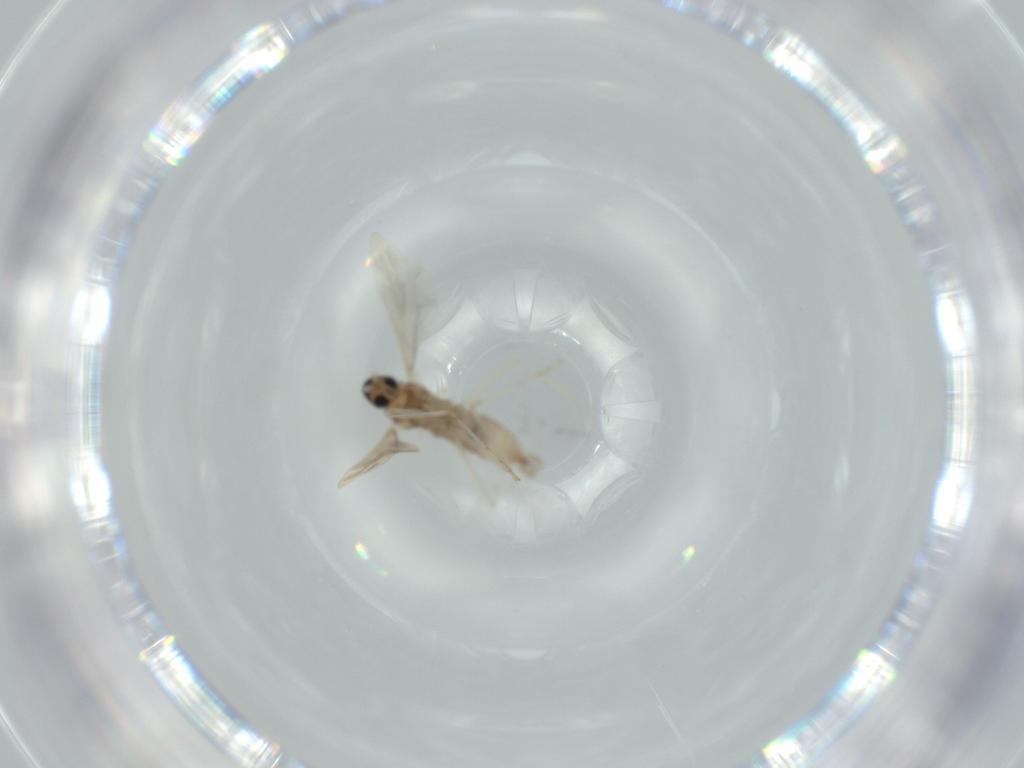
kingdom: Animalia
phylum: Arthropoda
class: Insecta
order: Diptera
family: Cecidomyiidae
